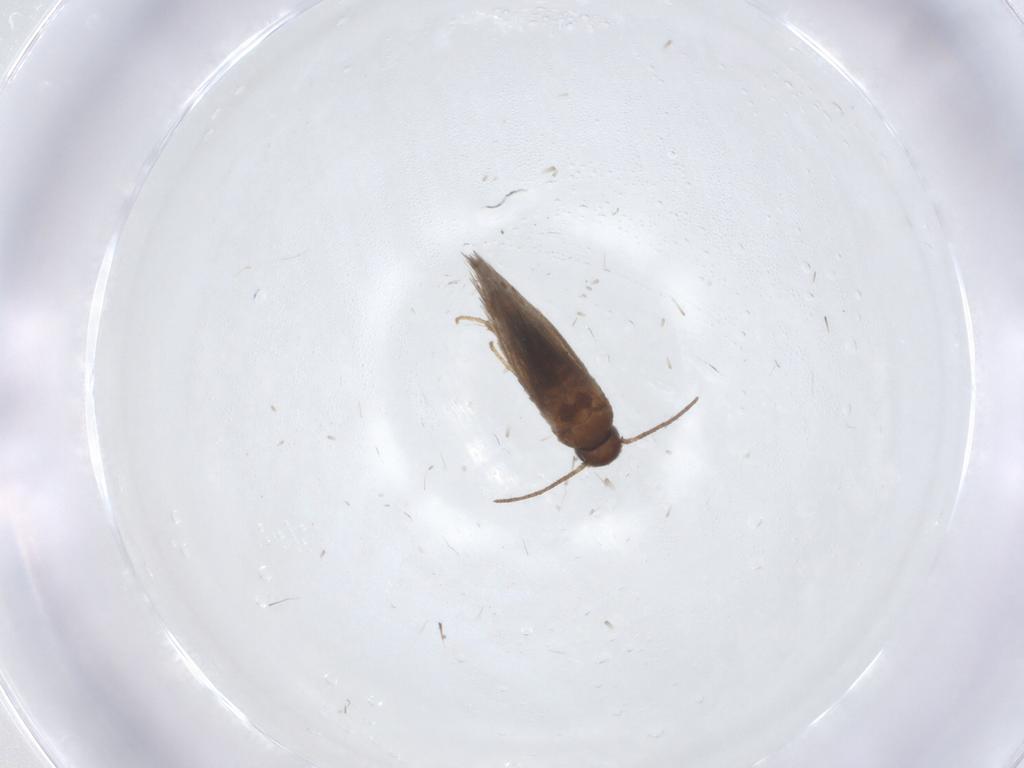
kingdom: Animalia
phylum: Arthropoda
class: Insecta
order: Lepidoptera
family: Heliozelidae
